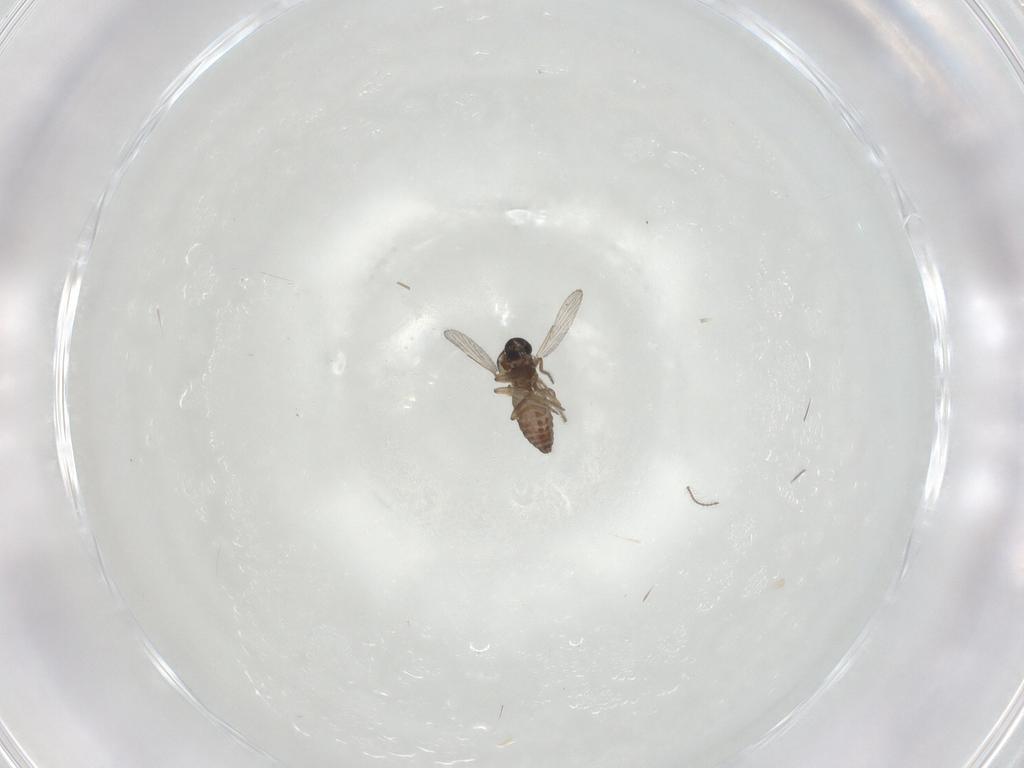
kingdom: Animalia
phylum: Arthropoda
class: Insecta
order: Diptera
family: Ceratopogonidae
